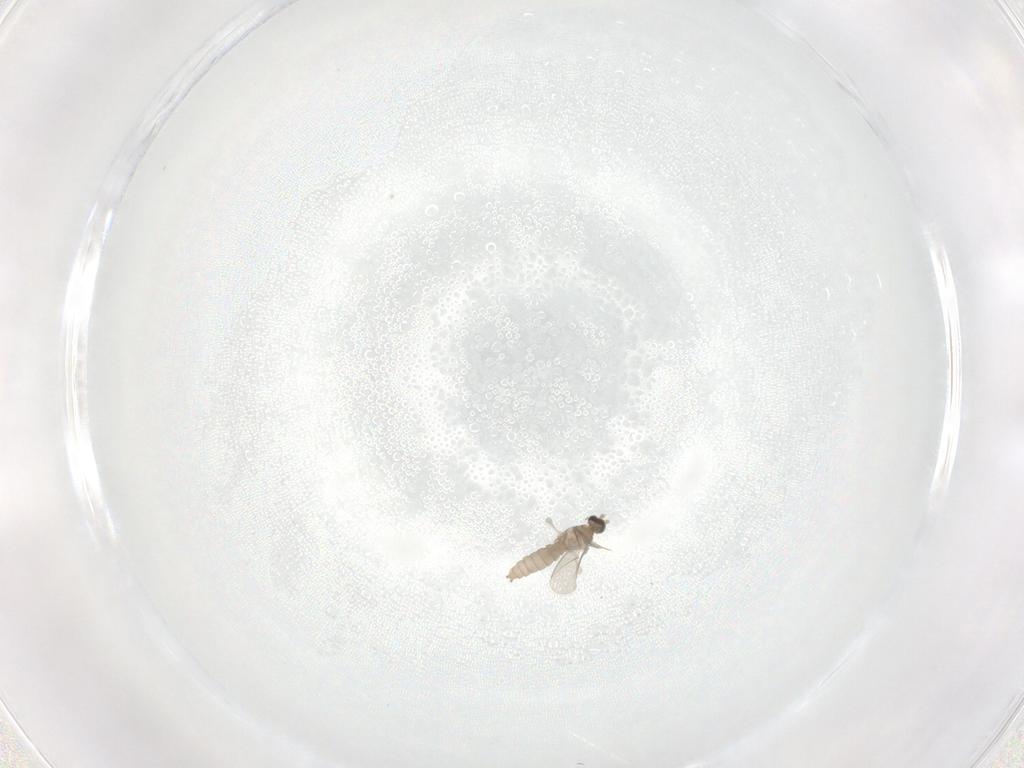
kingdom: Animalia
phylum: Arthropoda
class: Insecta
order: Diptera
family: Cecidomyiidae
